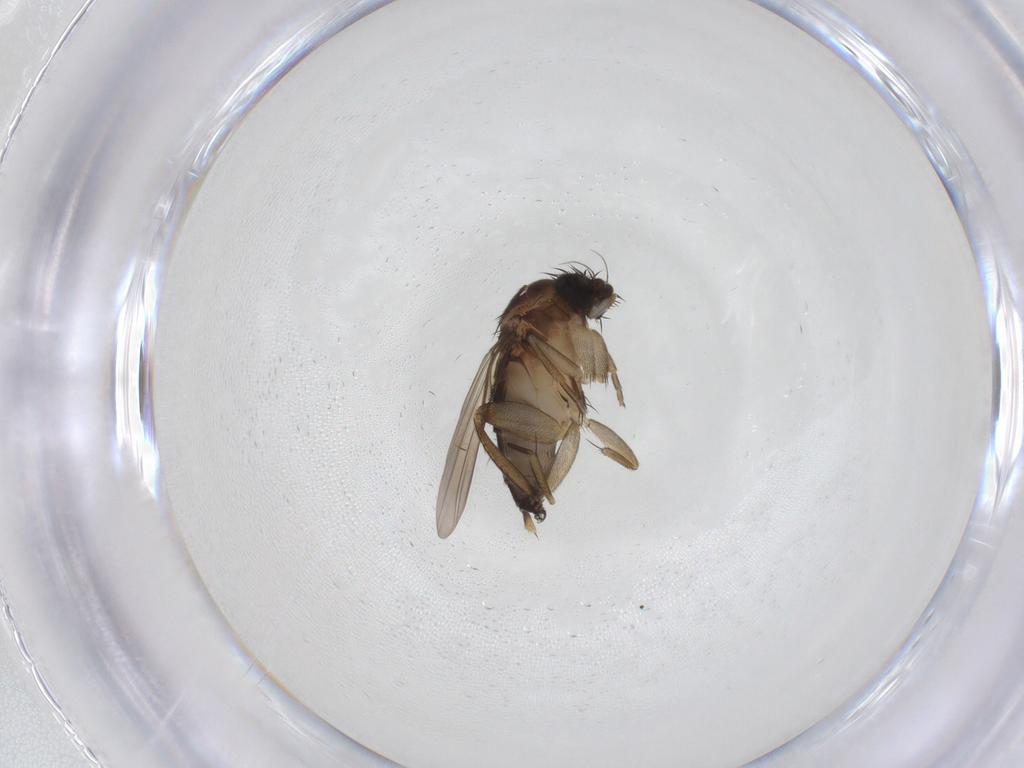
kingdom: Animalia
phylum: Arthropoda
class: Insecta
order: Diptera
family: Phoridae
